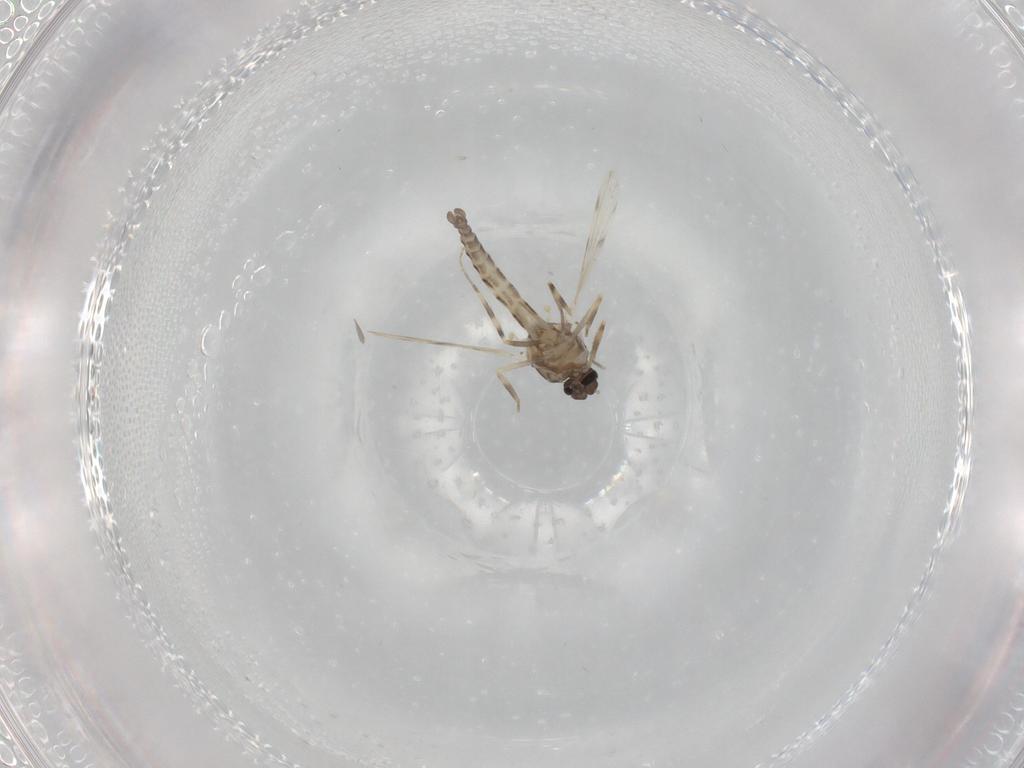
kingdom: Animalia
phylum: Arthropoda
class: Insecta
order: Diptera
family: Ceratopogonidae
